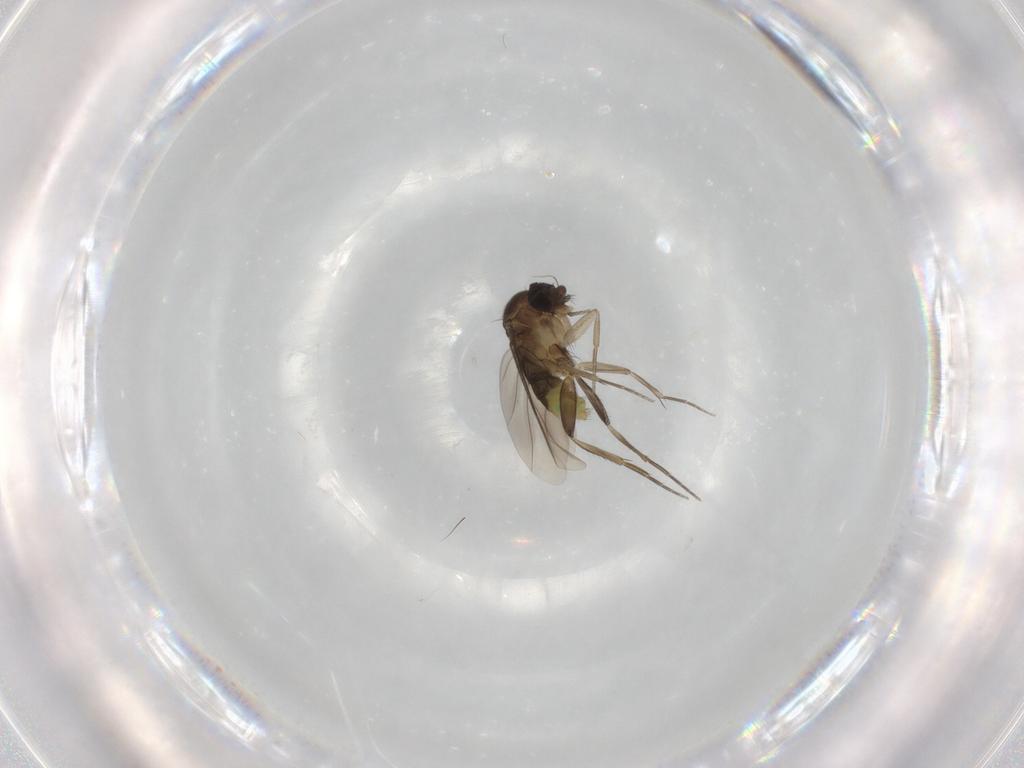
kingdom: Animalia
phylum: Arthropoda
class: Insecta
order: Diptera
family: Phoridae
